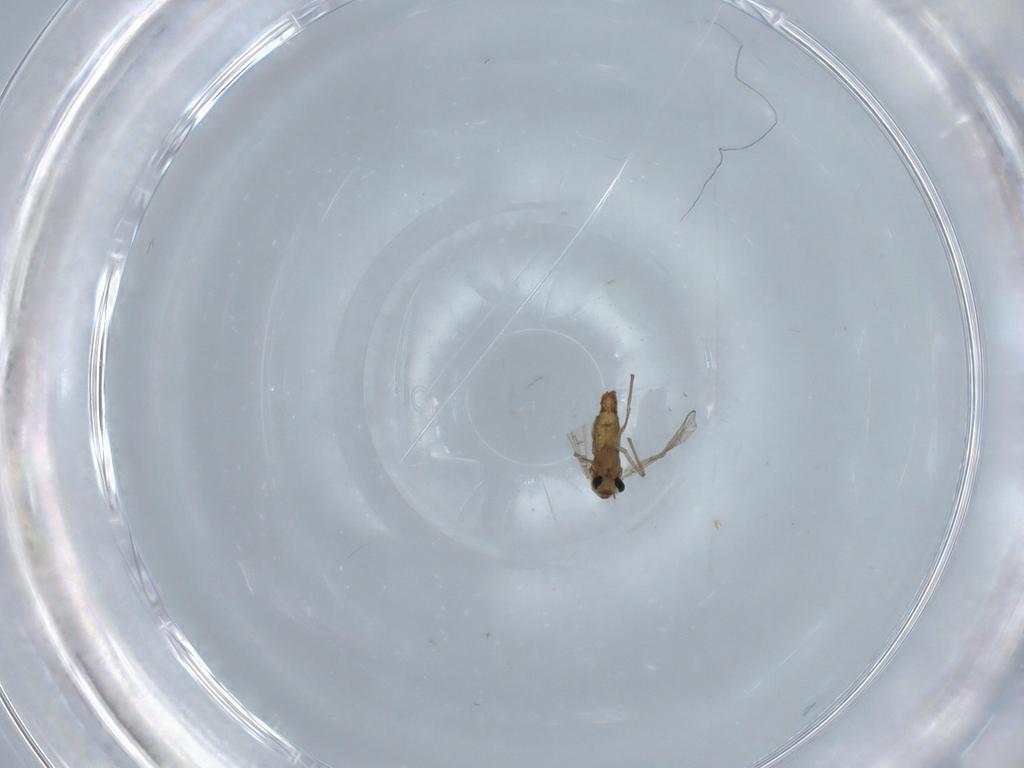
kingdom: Animalia
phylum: Arthropoda
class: Insecta
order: Diptera
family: Chironomidae
